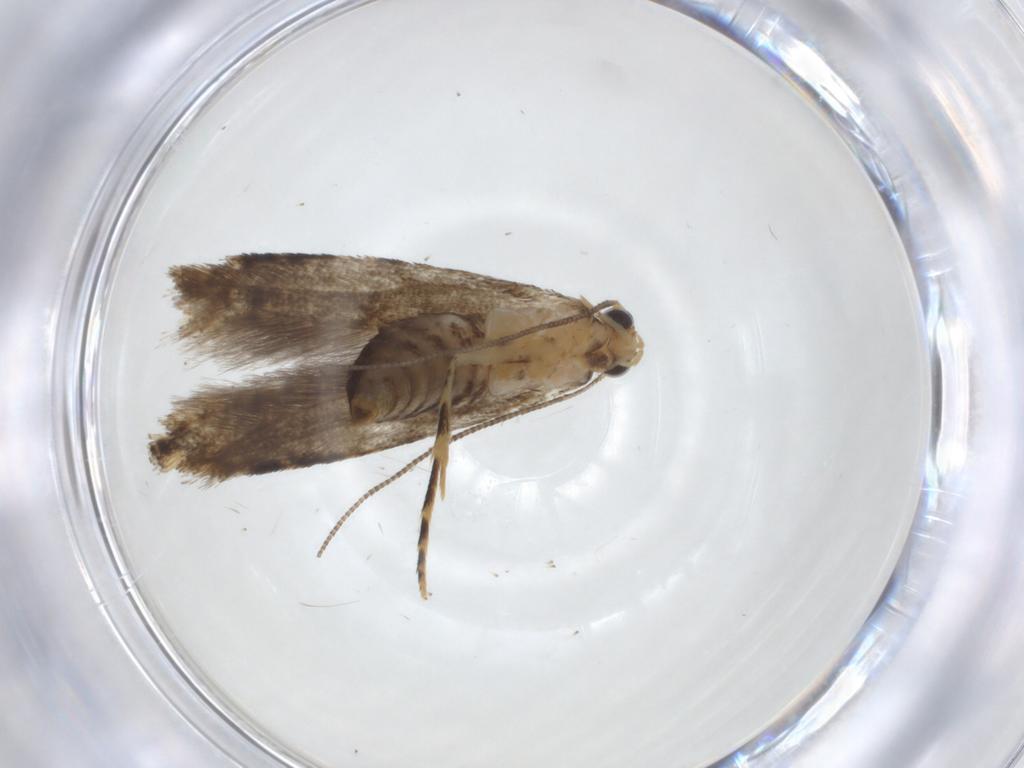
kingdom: Animalia
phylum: Arthropoda
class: Insecta
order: Lepidoptera
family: Tineidae
